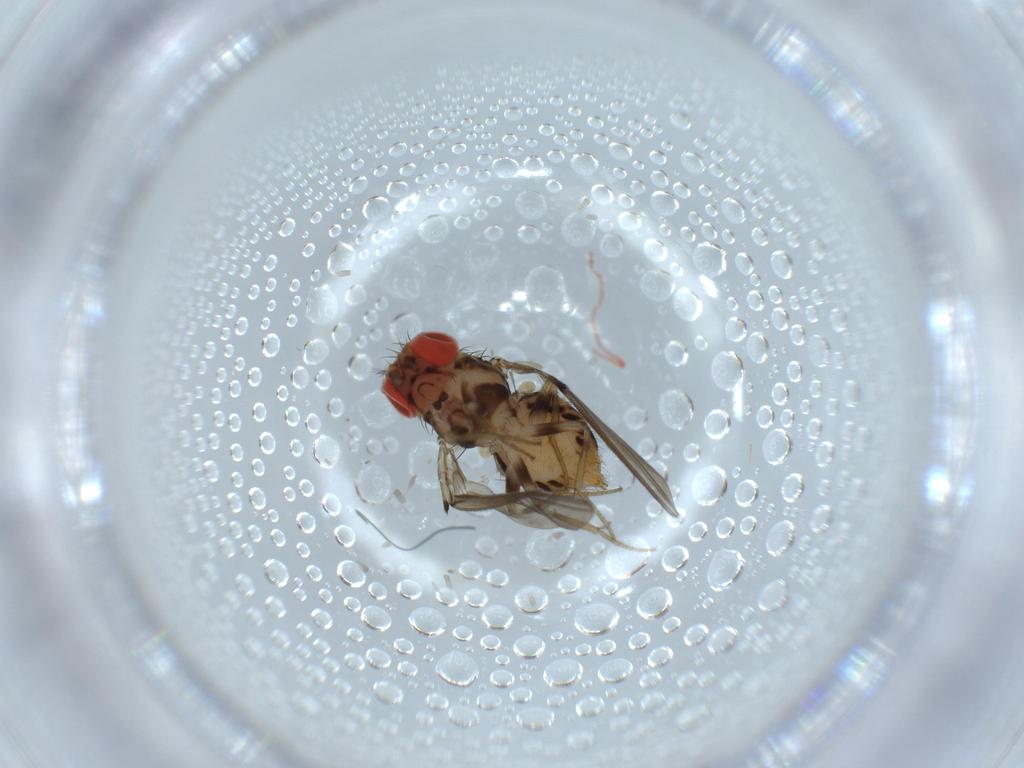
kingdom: Animalia
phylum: Arthropoda
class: Insecta
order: Diptera
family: Drosophilidae
